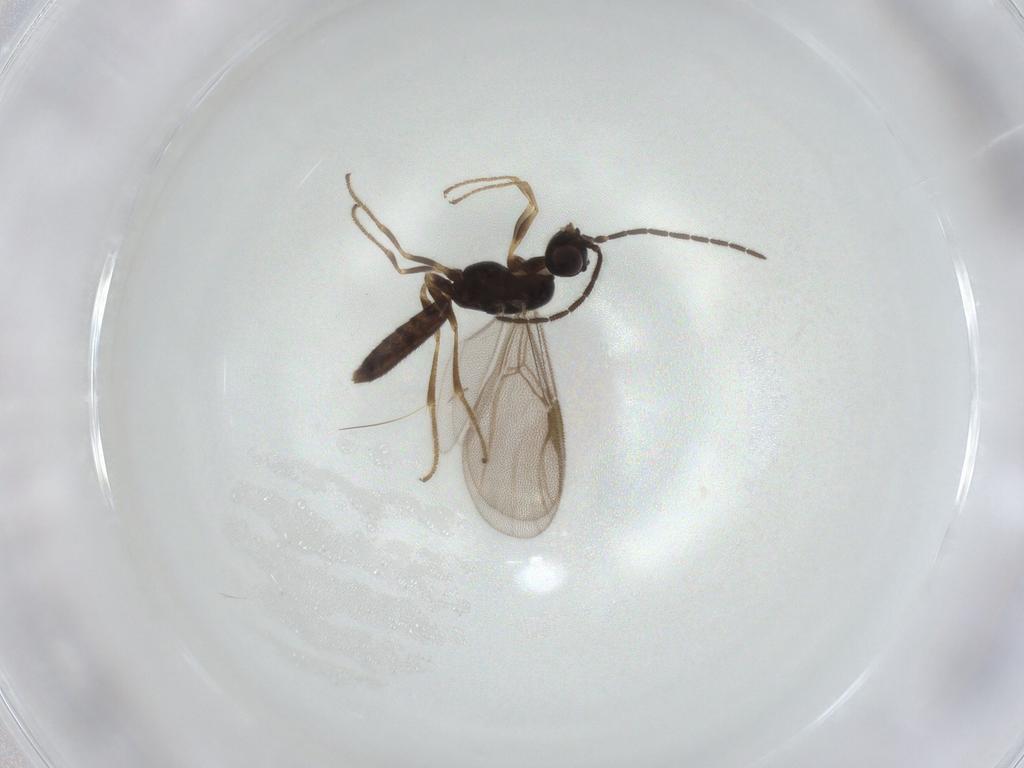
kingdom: Animalia
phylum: Arthropoda
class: Insecta
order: Hymenoptera
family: Dryinidae
